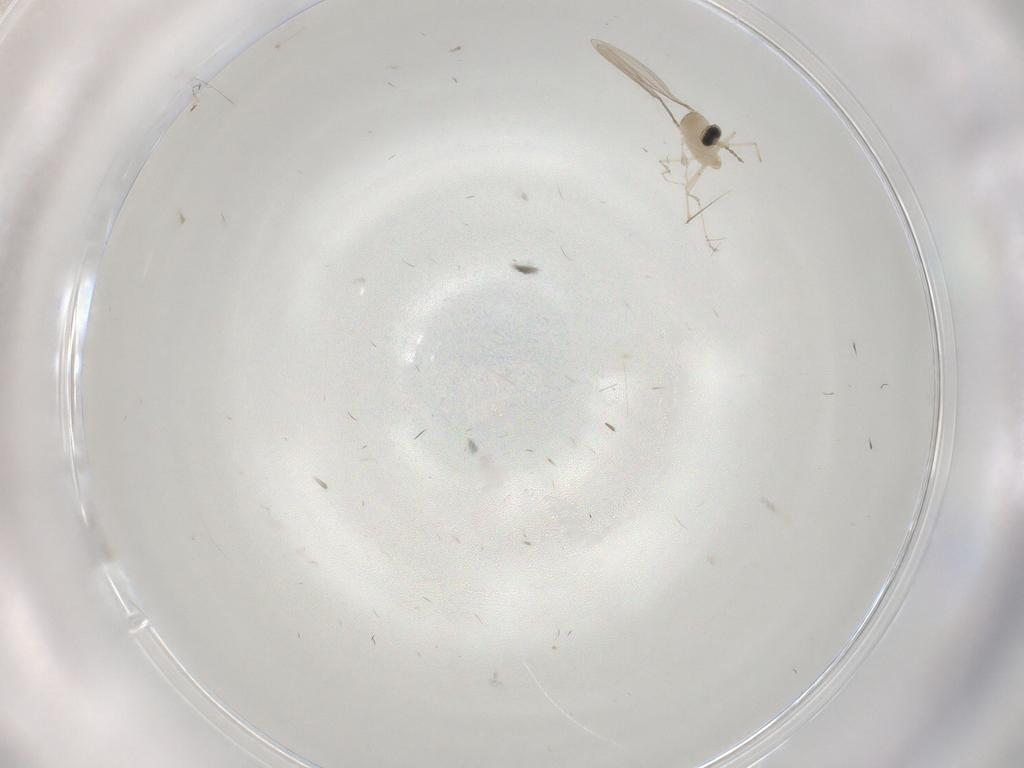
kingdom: Animalia
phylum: Arthropoda
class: Insecta
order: Diptera
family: Cecidomyiidae
